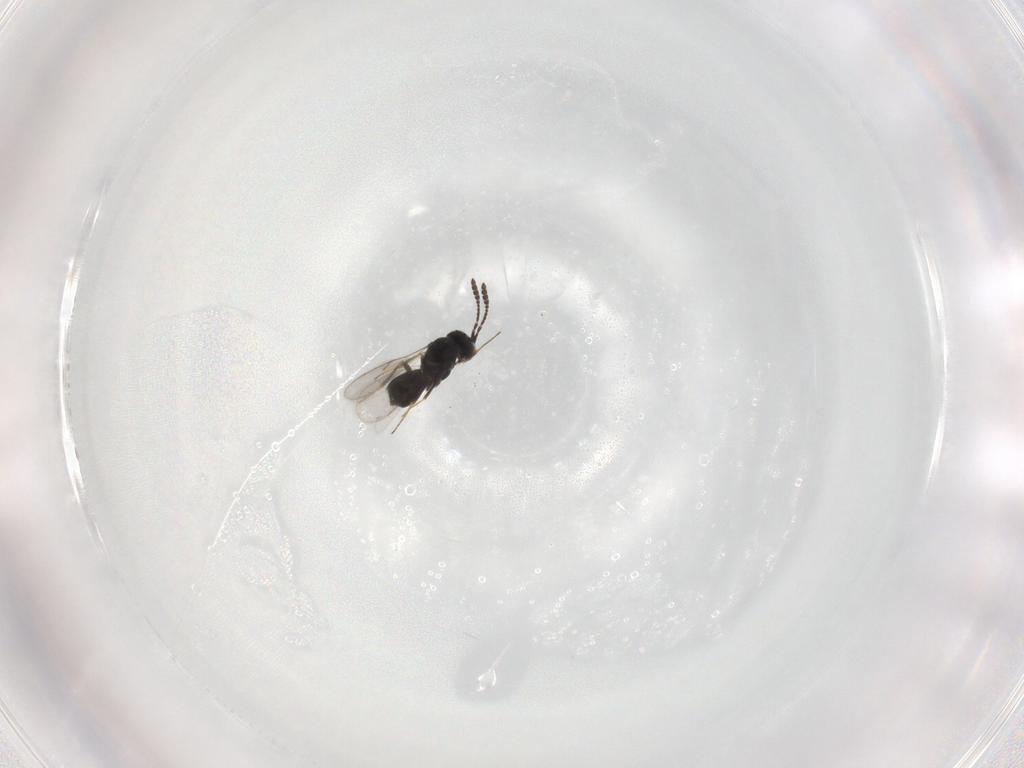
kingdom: Animalia
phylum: Arthropoda
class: Insecta
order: Hymenoptera
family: Scelionidae
